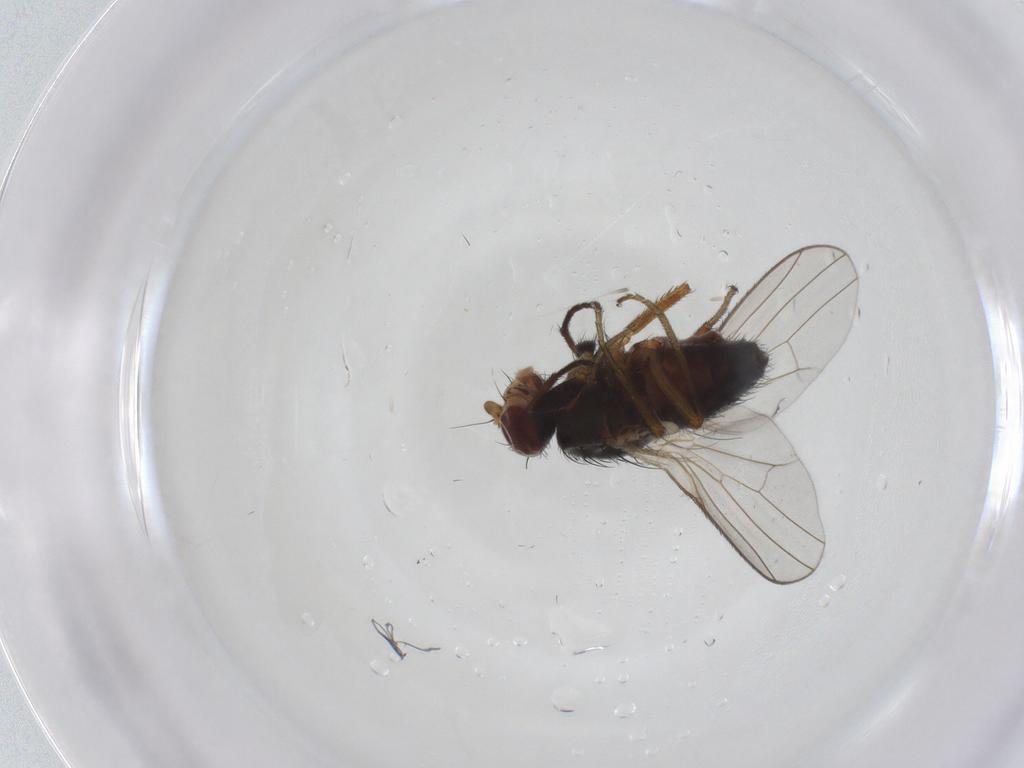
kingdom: Animalia
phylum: Arthropoda
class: Insecta
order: Diptera
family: Heleomyzidae
